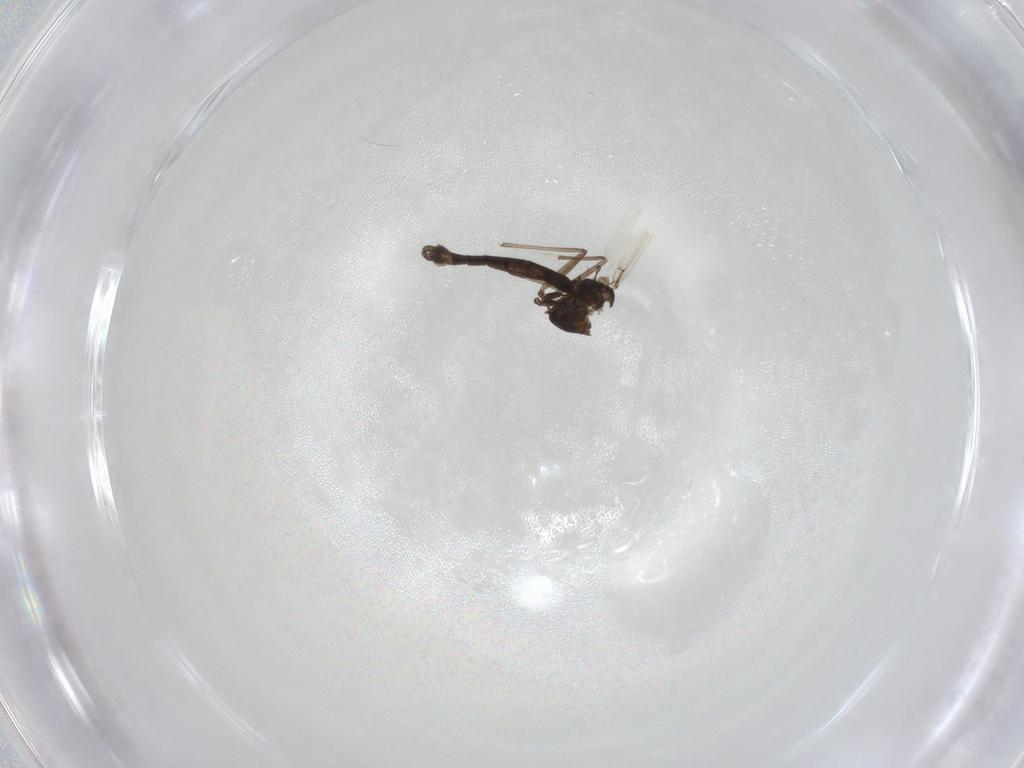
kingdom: Animalia
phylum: Arthropoda
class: Insecta
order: Diptera
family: Chironomidae
